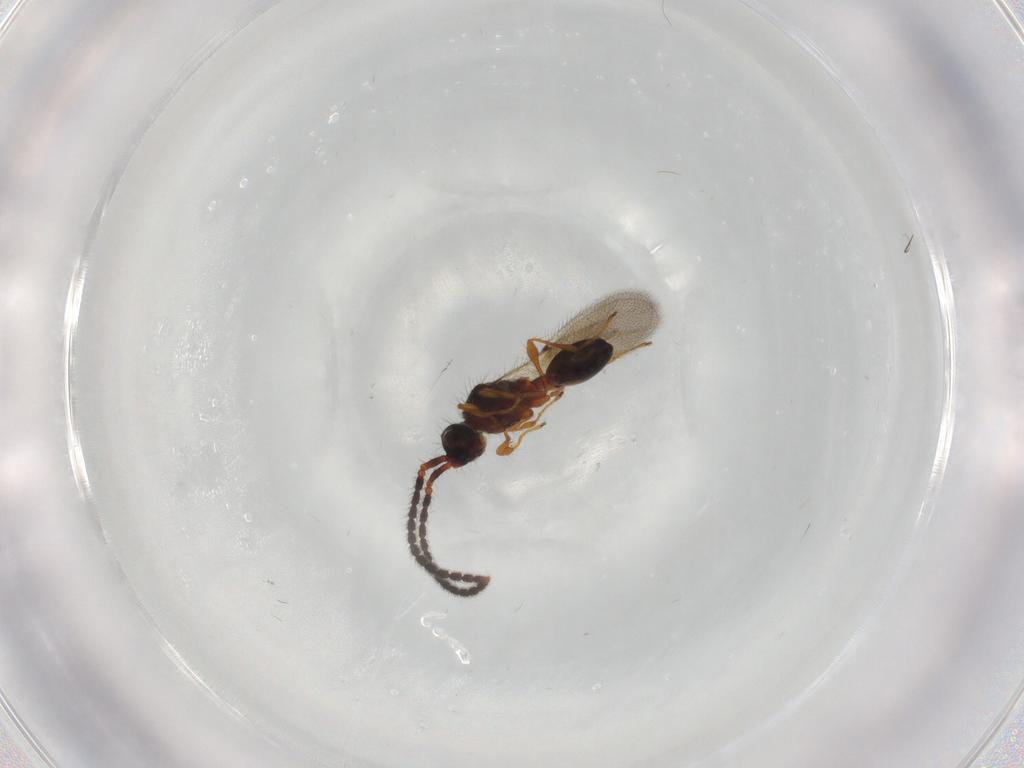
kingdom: Animalia
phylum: Arthropoda
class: Insecta
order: Hymenoptera
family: Diapriidae
